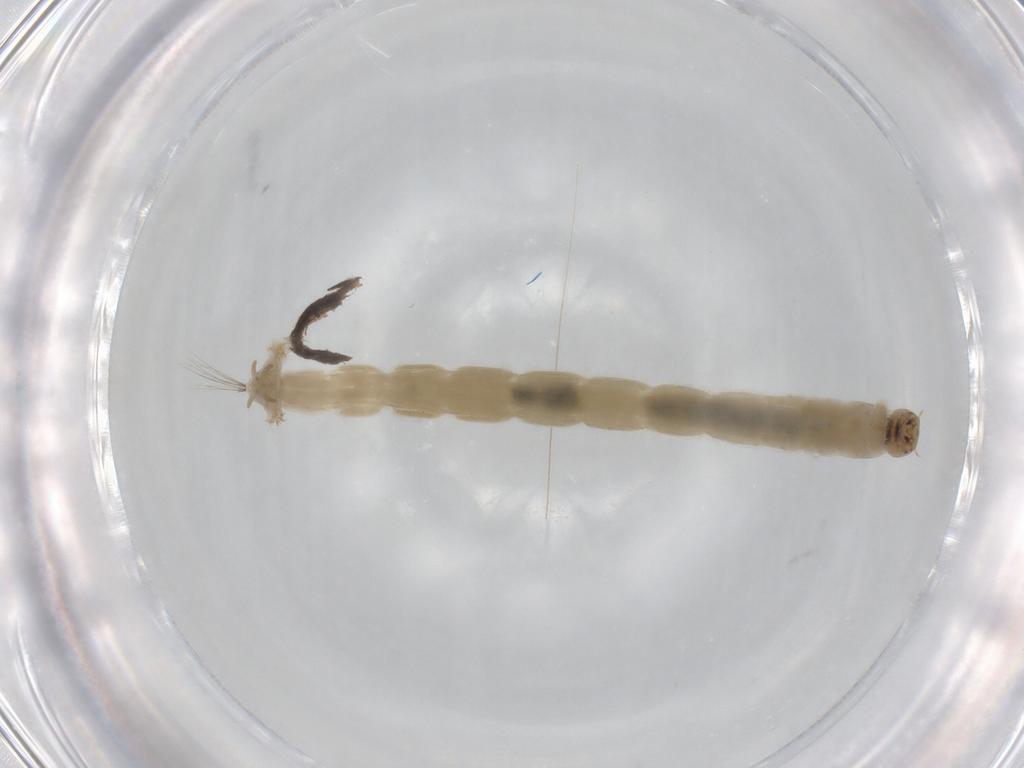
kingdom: Animalia
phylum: Arthropoda
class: Insecta
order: Diptera
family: Chironomidae
